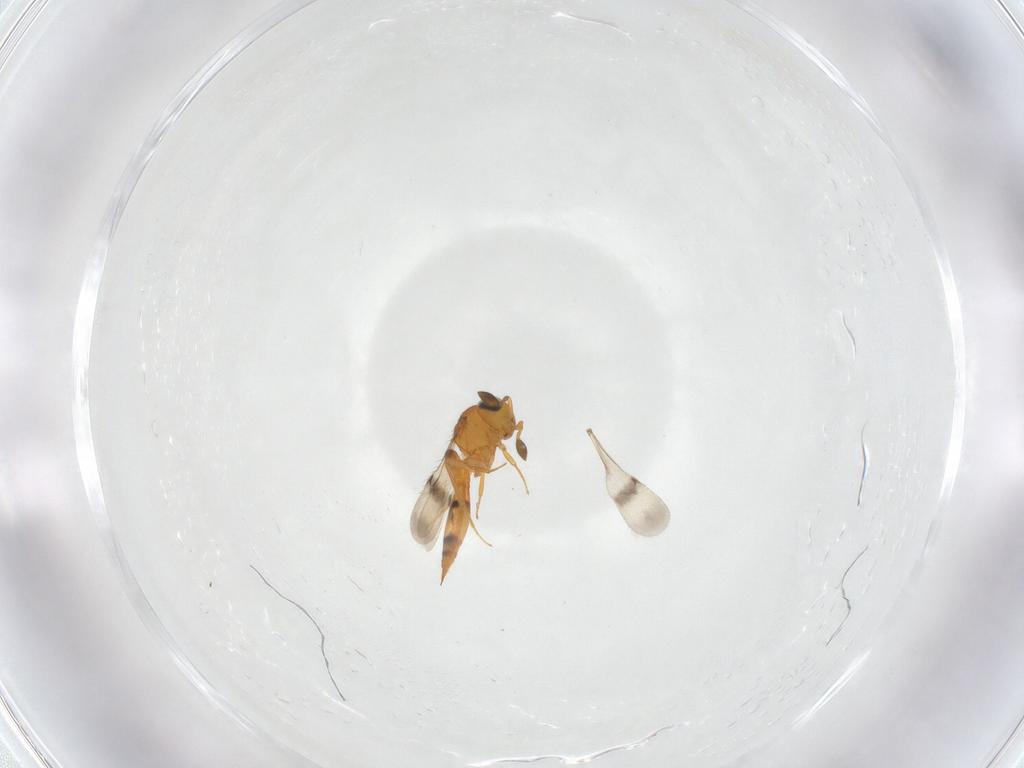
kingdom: Animalia
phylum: Arthropoda
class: Insecta
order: Hymenoptera
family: Scelionidae
